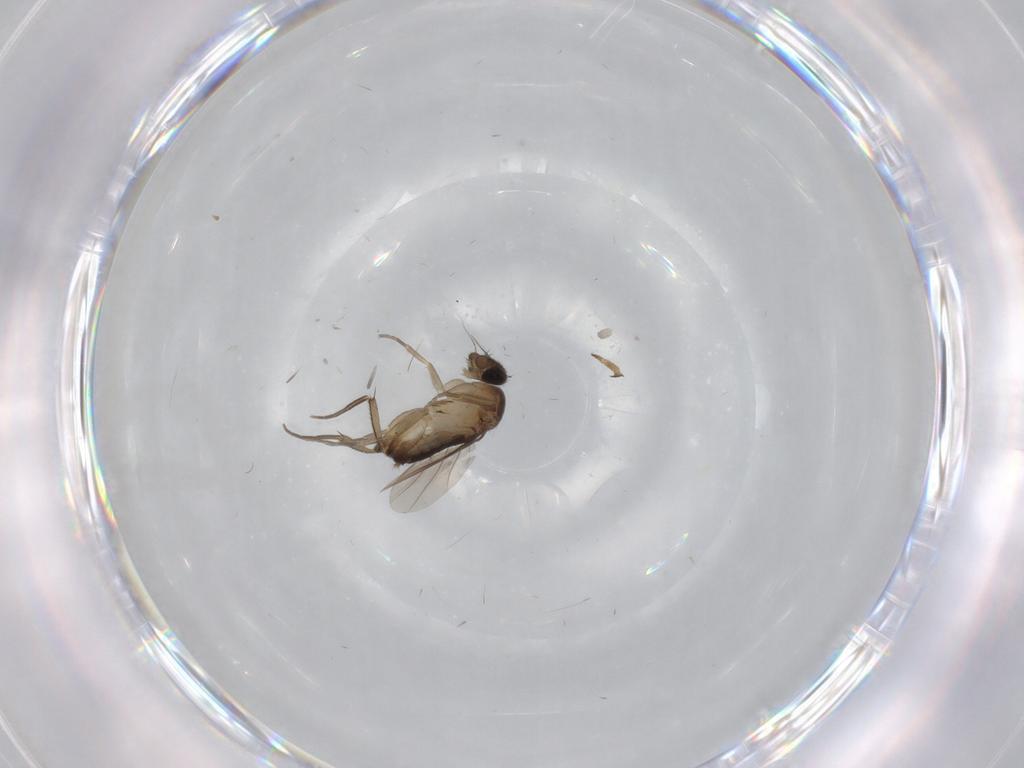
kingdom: Animalia
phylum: Arthropoda
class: Insecta
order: Diptera
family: Phoridae
